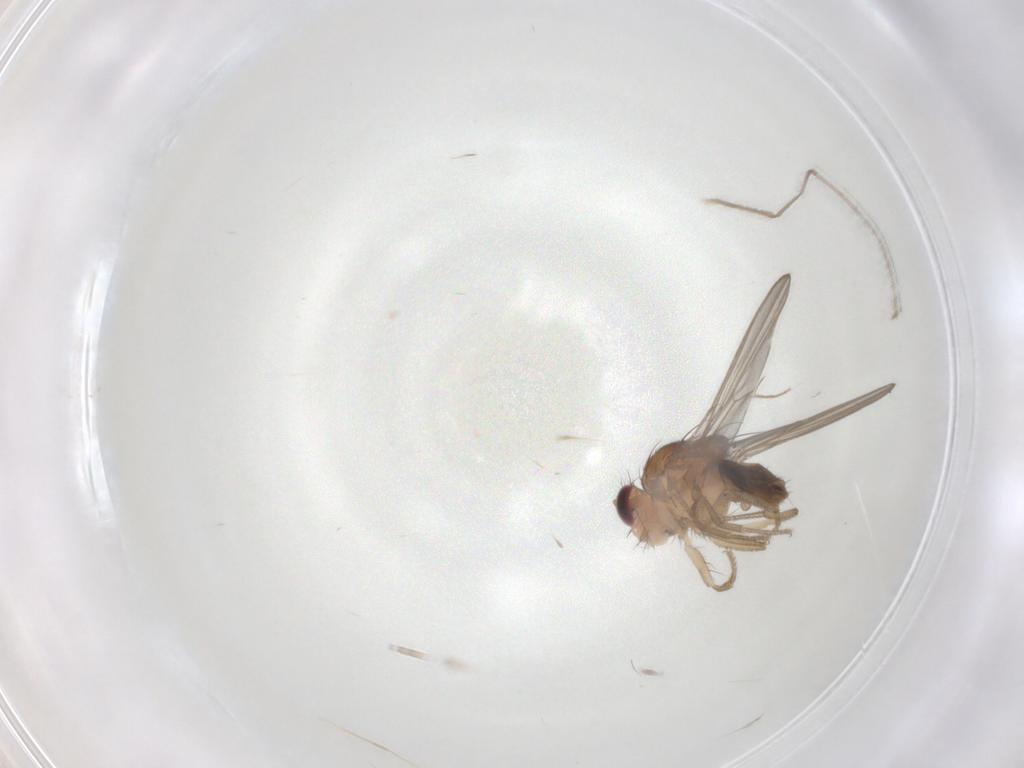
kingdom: Animalia
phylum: Arthropoda
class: Insecta
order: Diptera
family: Drosophilidae
